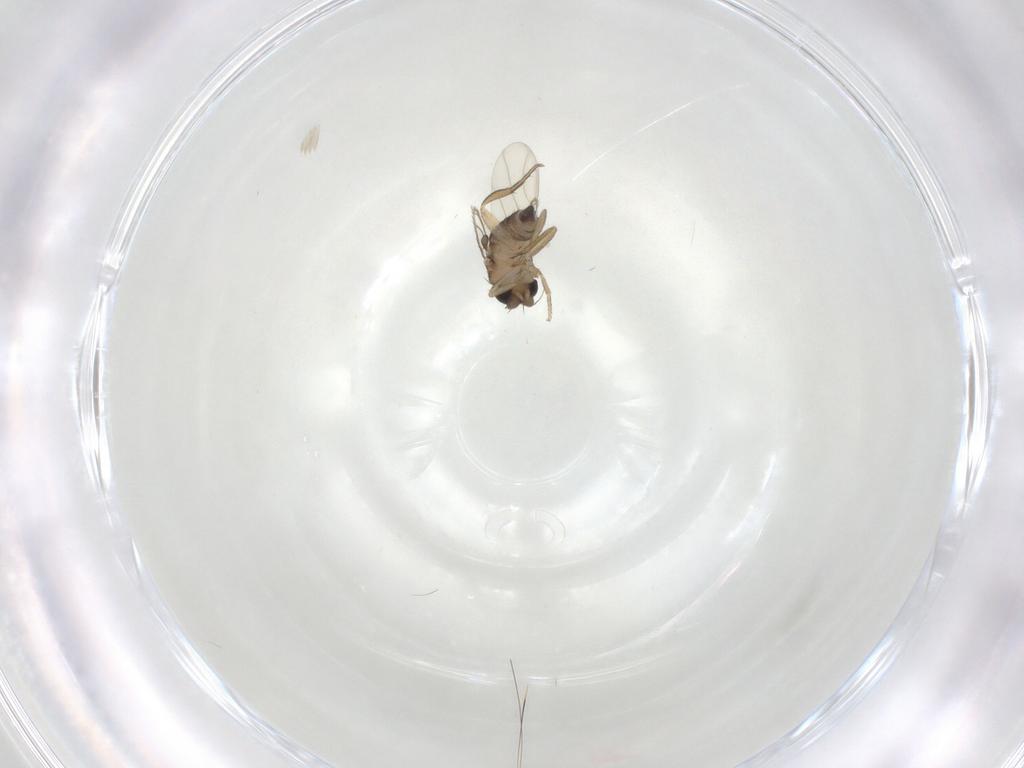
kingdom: Animalia
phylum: Arthropoda
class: Insecta
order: Diptera
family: Phoridae
